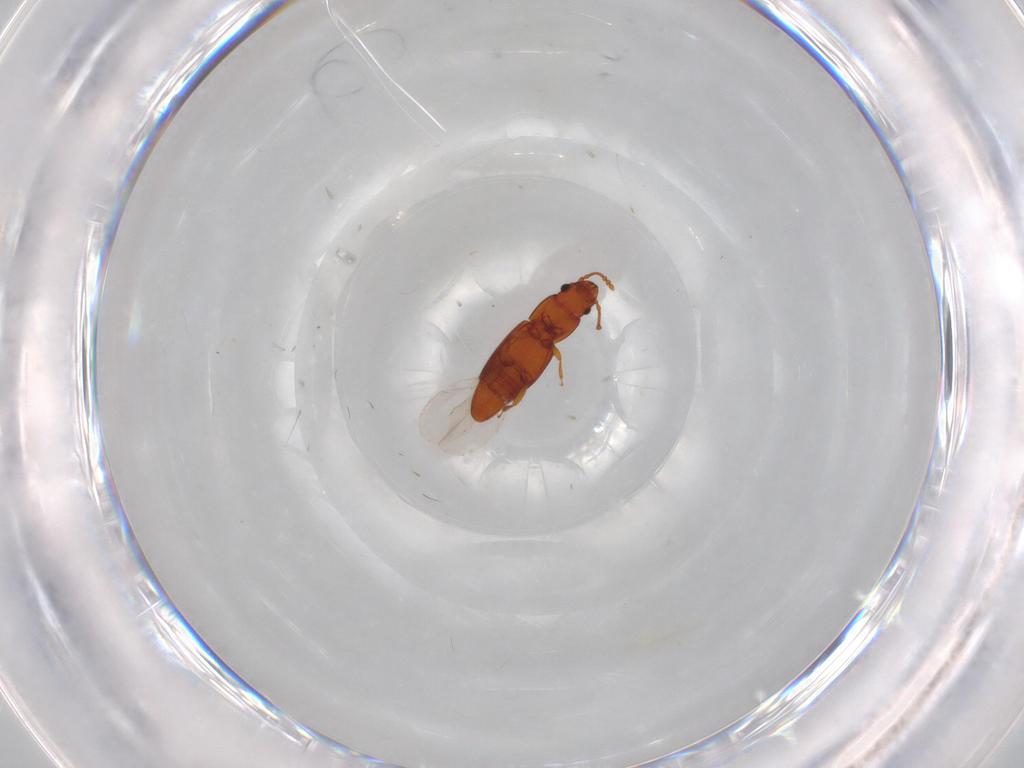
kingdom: Animalia
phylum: Arthropoda
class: Insecta
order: Coleoptera
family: Smicripidae
